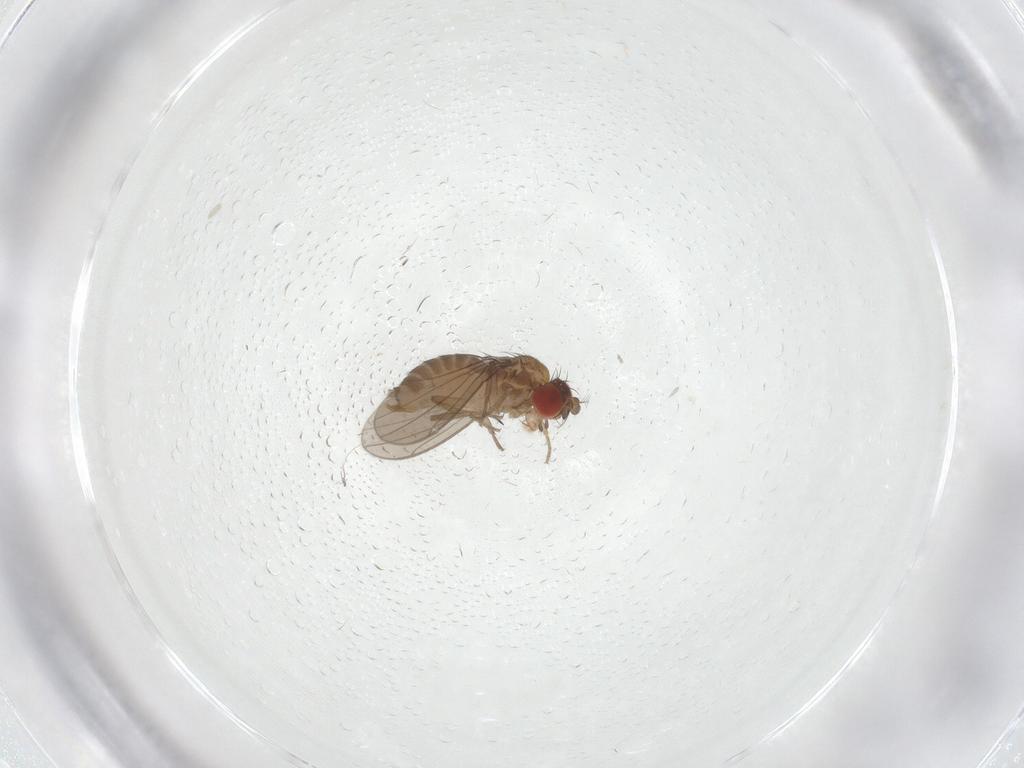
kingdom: Animalia
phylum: Arthropoda
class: Insecta
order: Diptera
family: Drosophilidae
